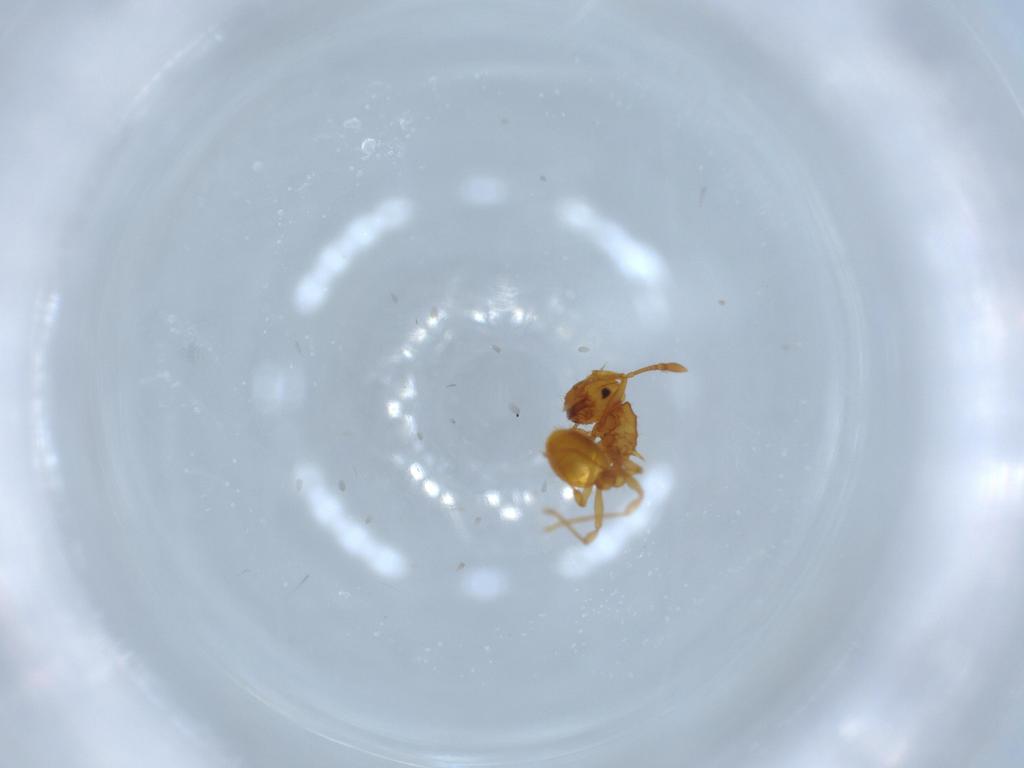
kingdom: Animalia
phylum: Arthropoda
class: Insecta
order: Hymenoptera
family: Formicidae
